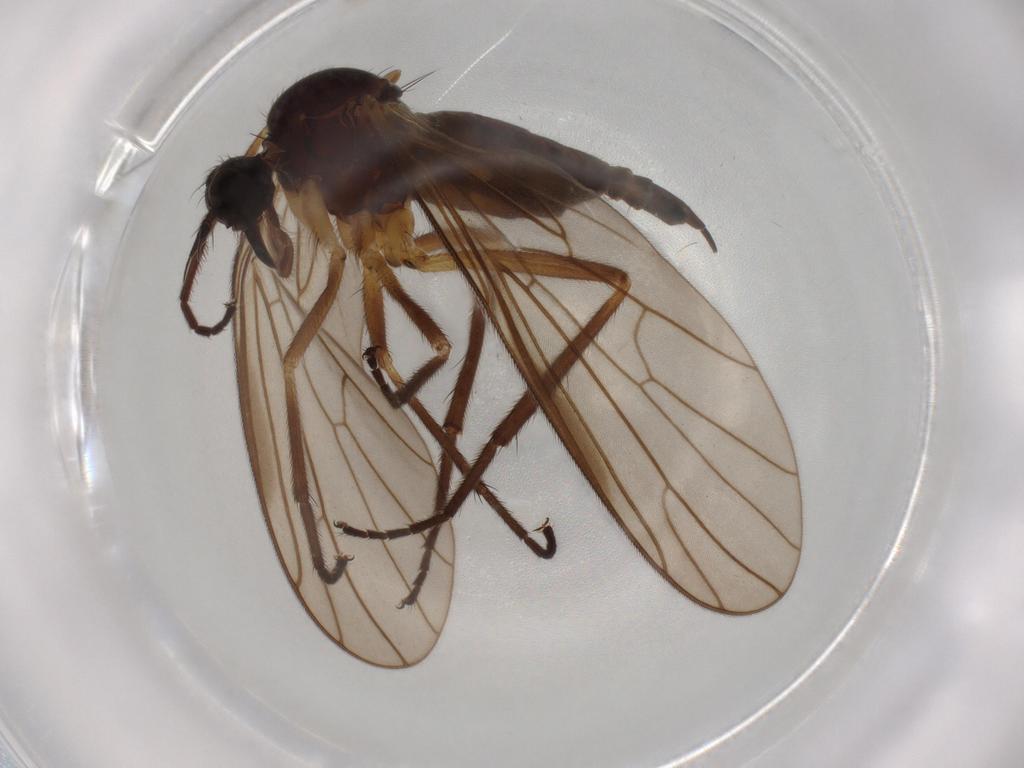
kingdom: Animalia
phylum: Arthropoda
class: Insecta
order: Diptera
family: Empididae
